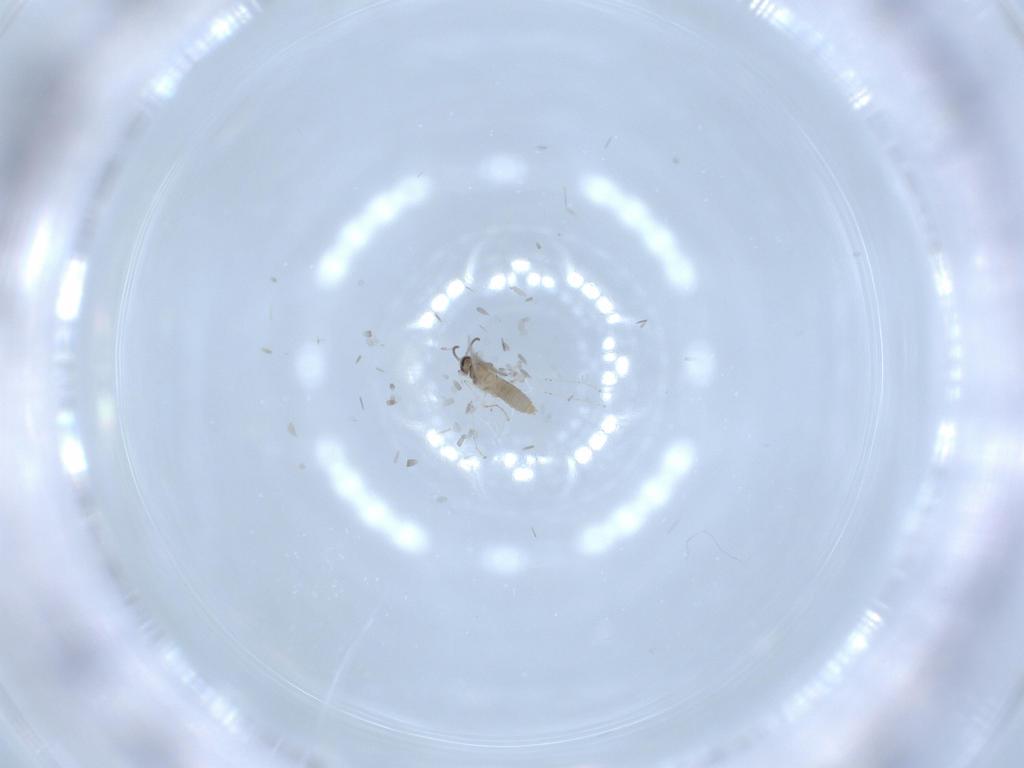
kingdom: Animalia
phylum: Arthropoda
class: Insecta
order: Diptera
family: Cecidomyiidae
